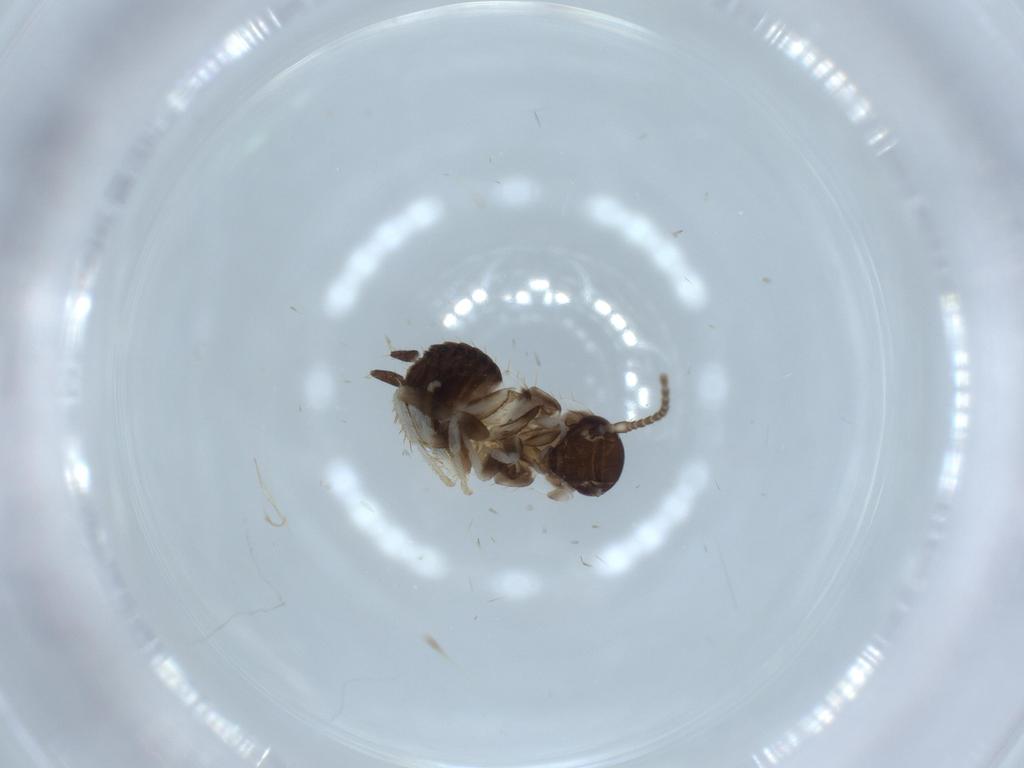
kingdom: Animalia
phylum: Arthropoda
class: Insecta
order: Blattodea
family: Ectobiidae
